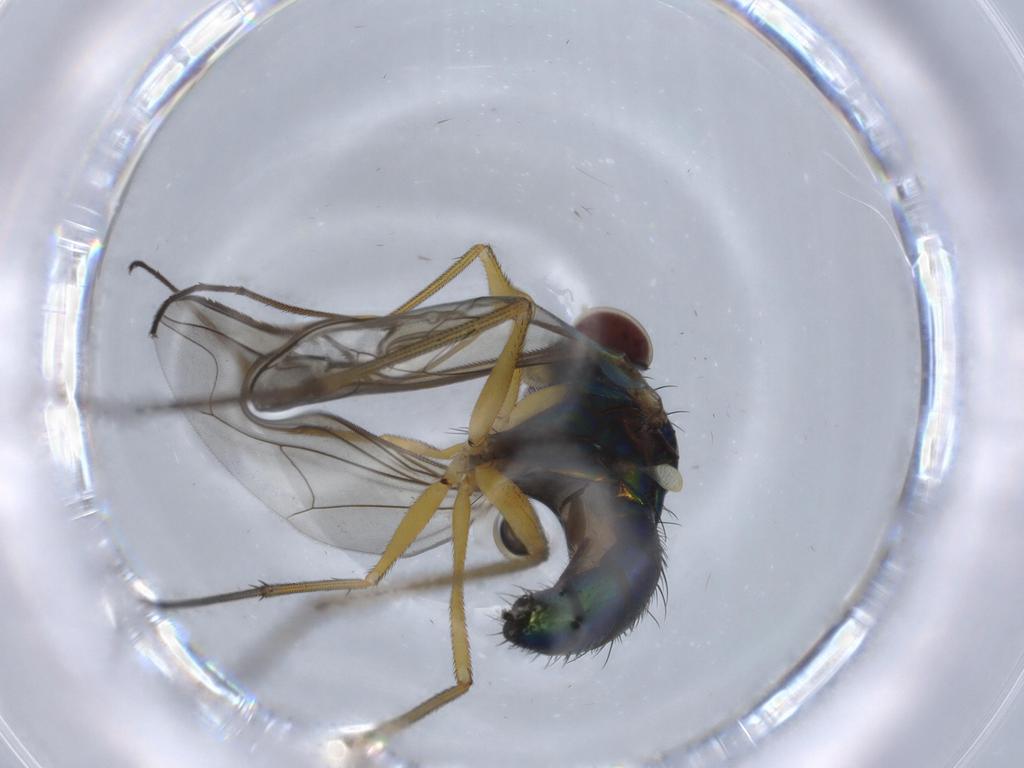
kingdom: Animalia
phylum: Arthropoda
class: Insecta
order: Diptera
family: Dolichopodidae
